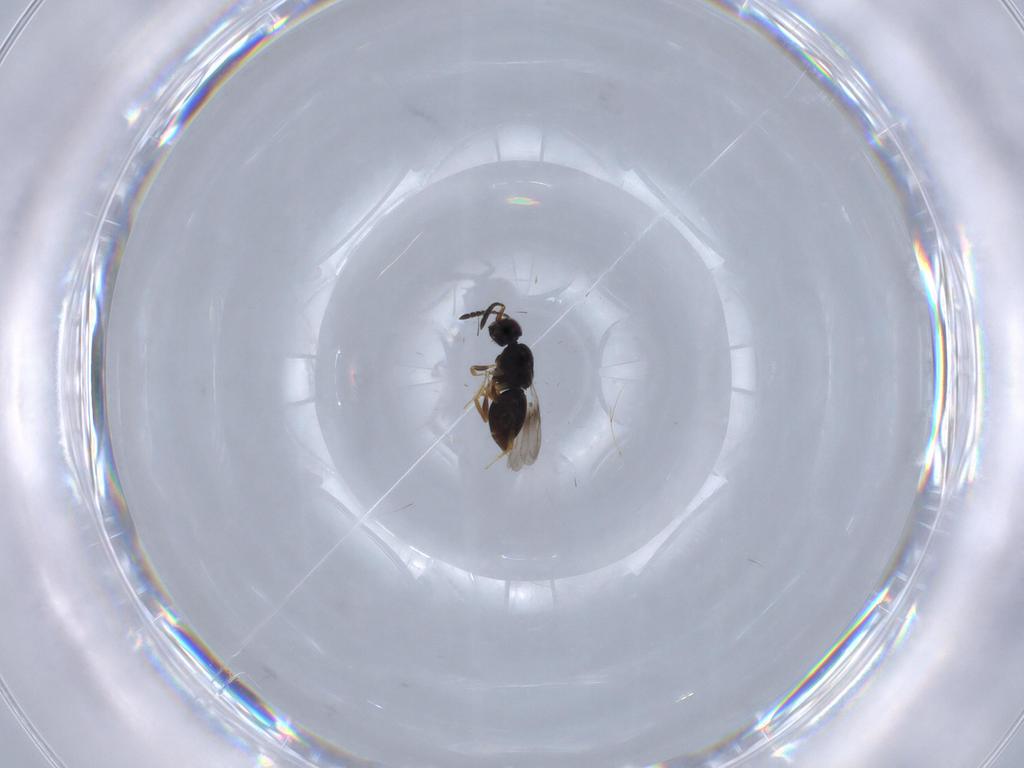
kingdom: Animalia
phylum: Arthropoda
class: Insecta
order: Hymenoptera
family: Ceraphronidae
